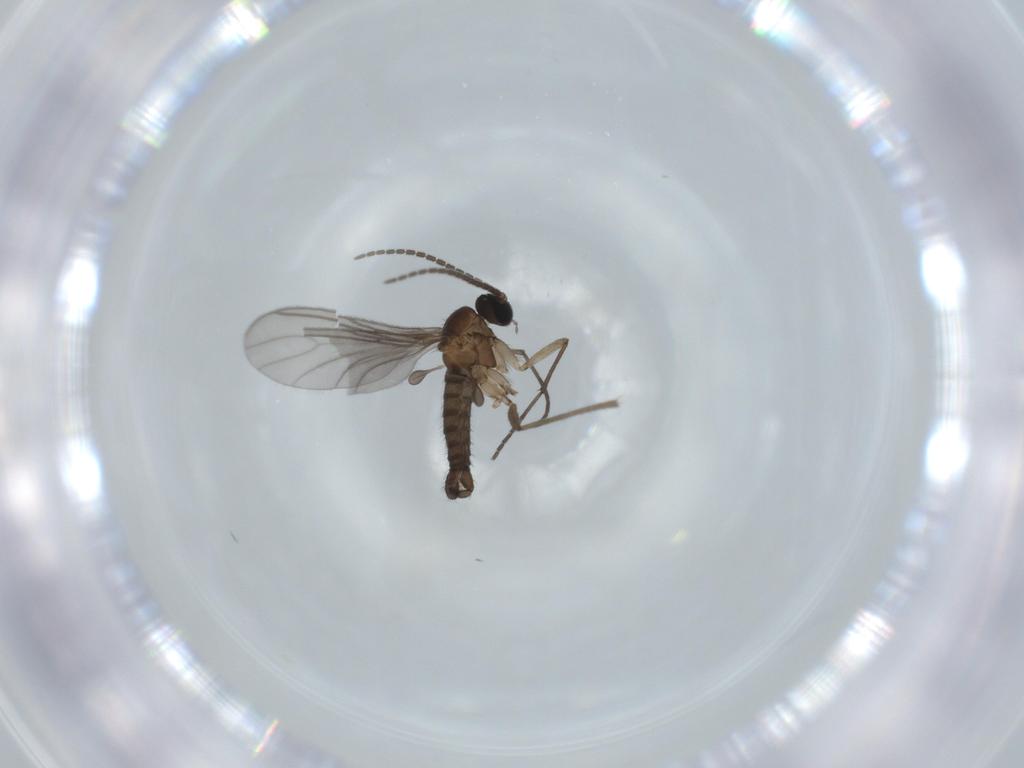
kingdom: Animalia
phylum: Arthropoda
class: Insecta
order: Diptera
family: Sciaridae
